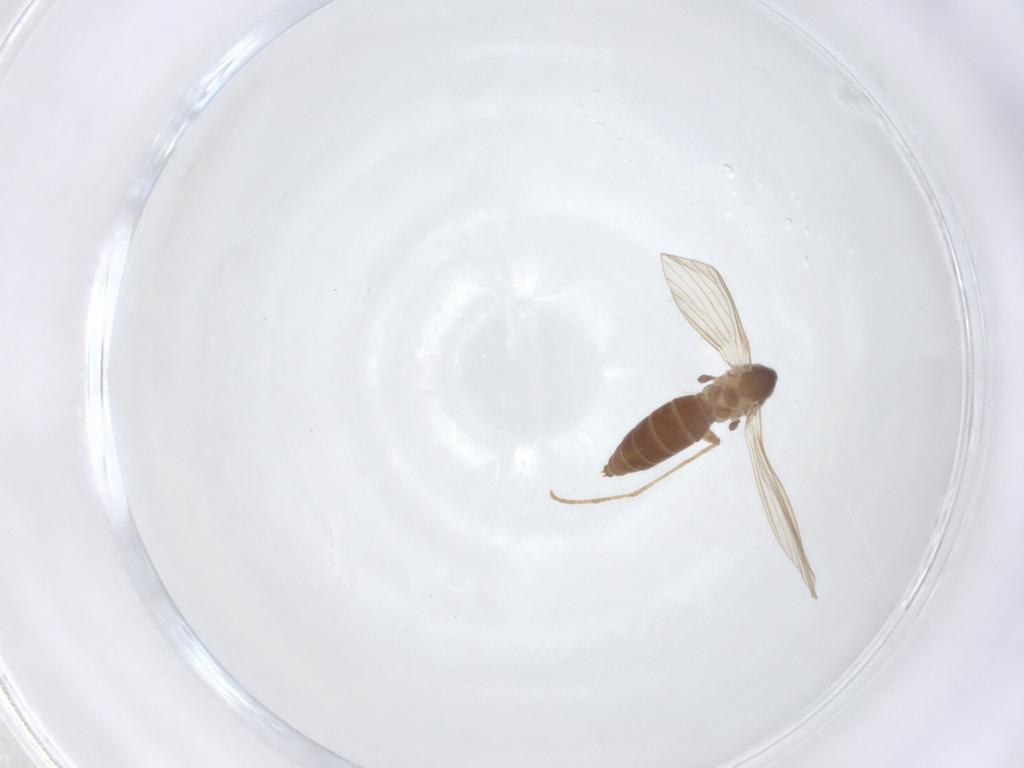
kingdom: Animalia
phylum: Arthropoda
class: Insecta
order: Diptera
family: Psychodidae
